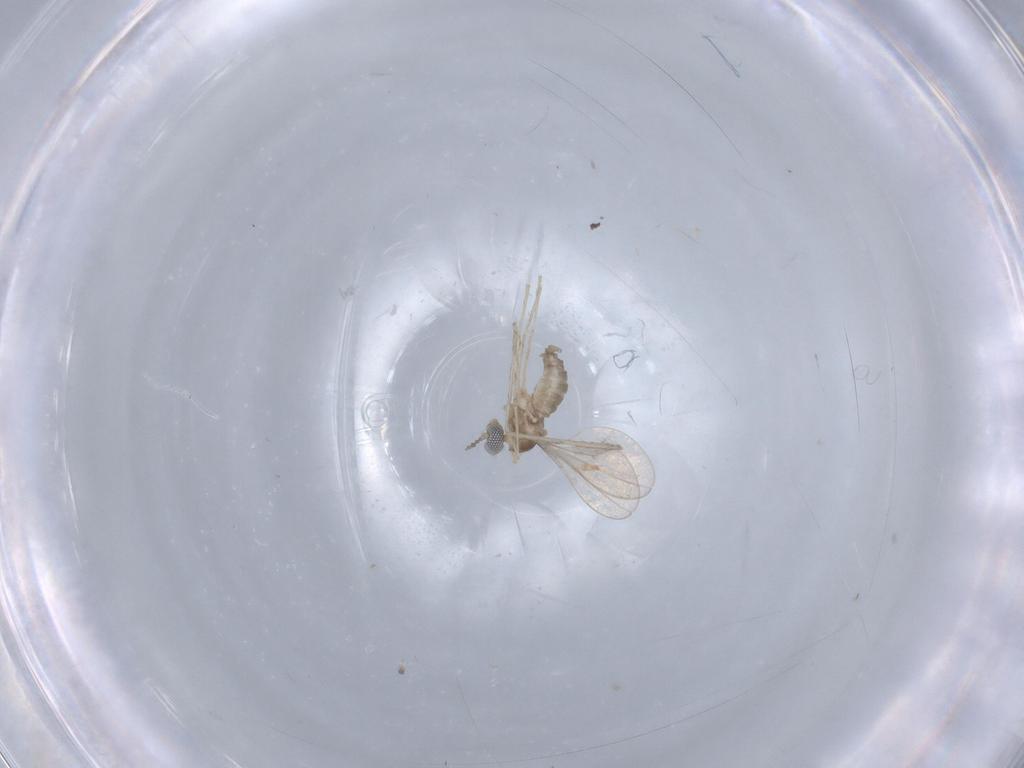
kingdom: Animalia
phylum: Arthropoda
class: Insecta
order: Diptera
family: Cecidomyiidae
